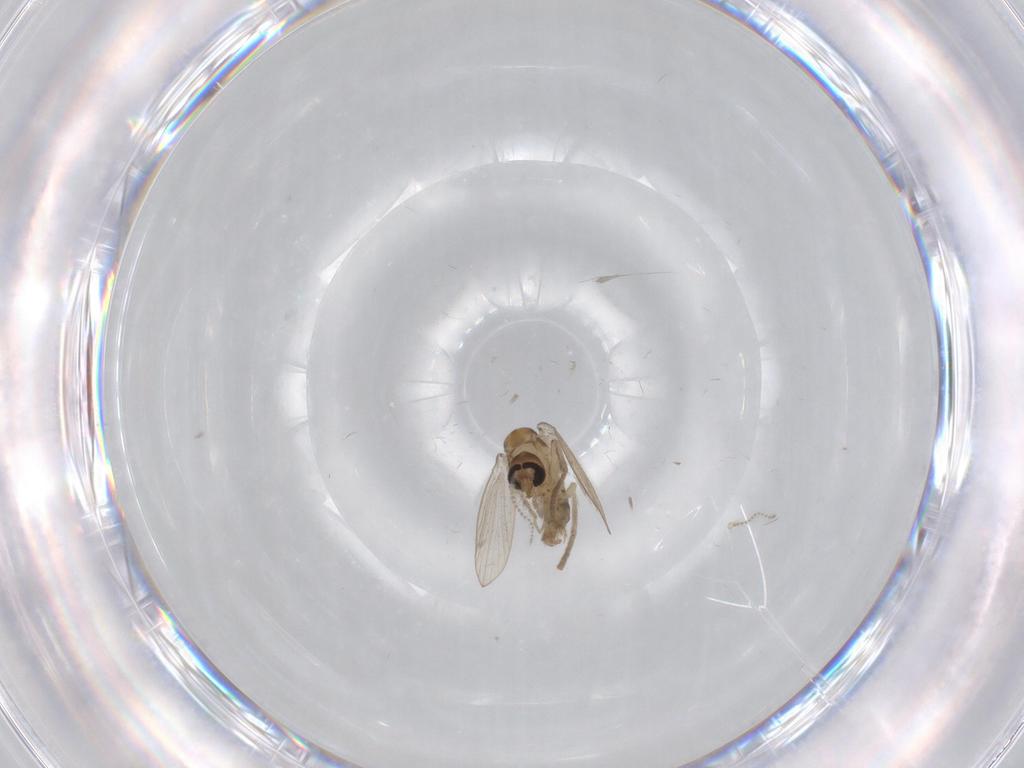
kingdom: Animalia
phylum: Arthropoda
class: Insecta
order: Diptera
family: Psychodidae
